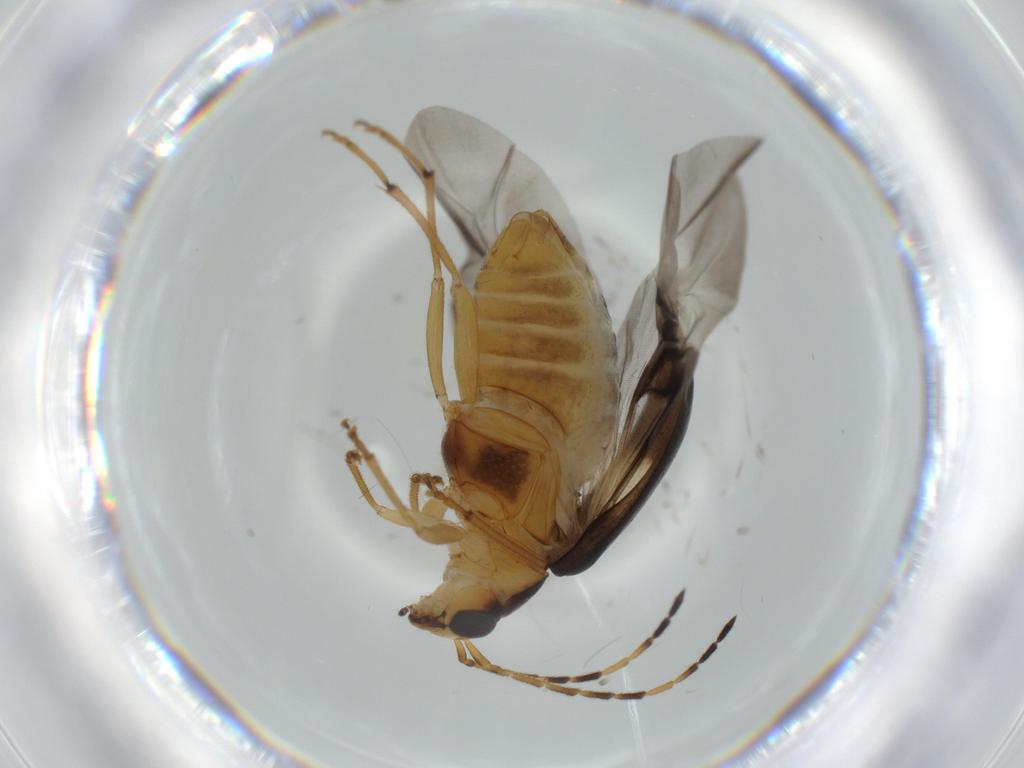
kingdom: Animalia
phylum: Arthropoda
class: Insecta
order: Coleoptera
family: Chrysomelidae
